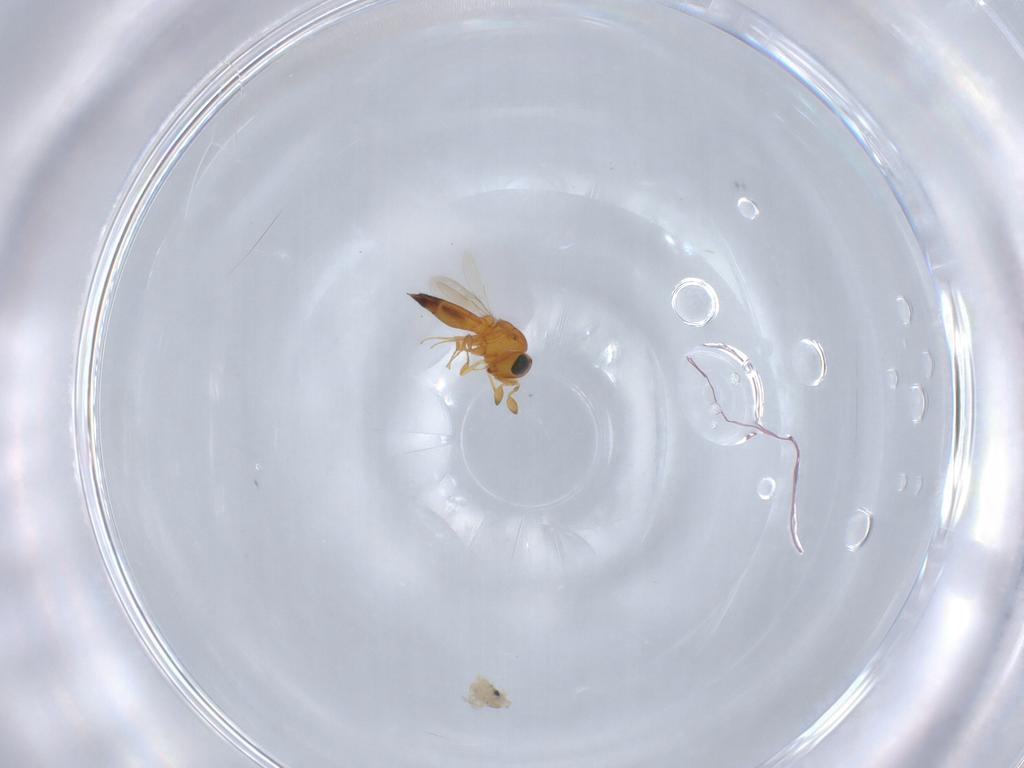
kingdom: Animalia
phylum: Arthropoda
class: Insecta
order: Hymenoptera
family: Scelionidae
